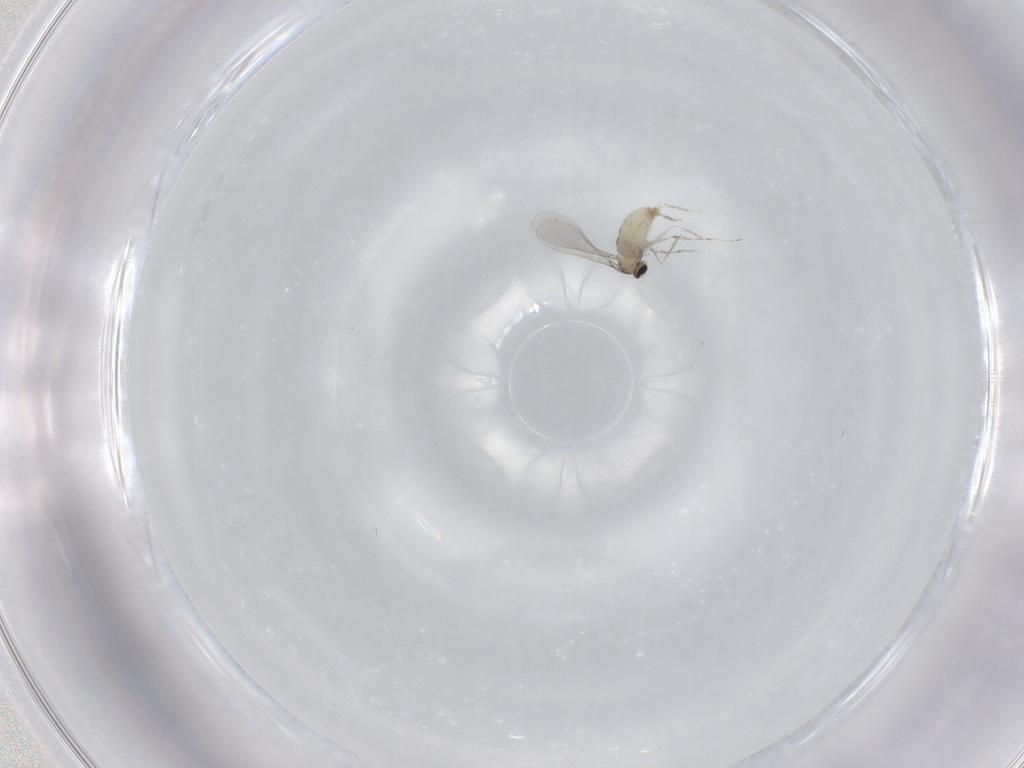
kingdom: Animalia
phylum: Arthropoda
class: Insecta
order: Diptera
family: Cecidomyiidae
